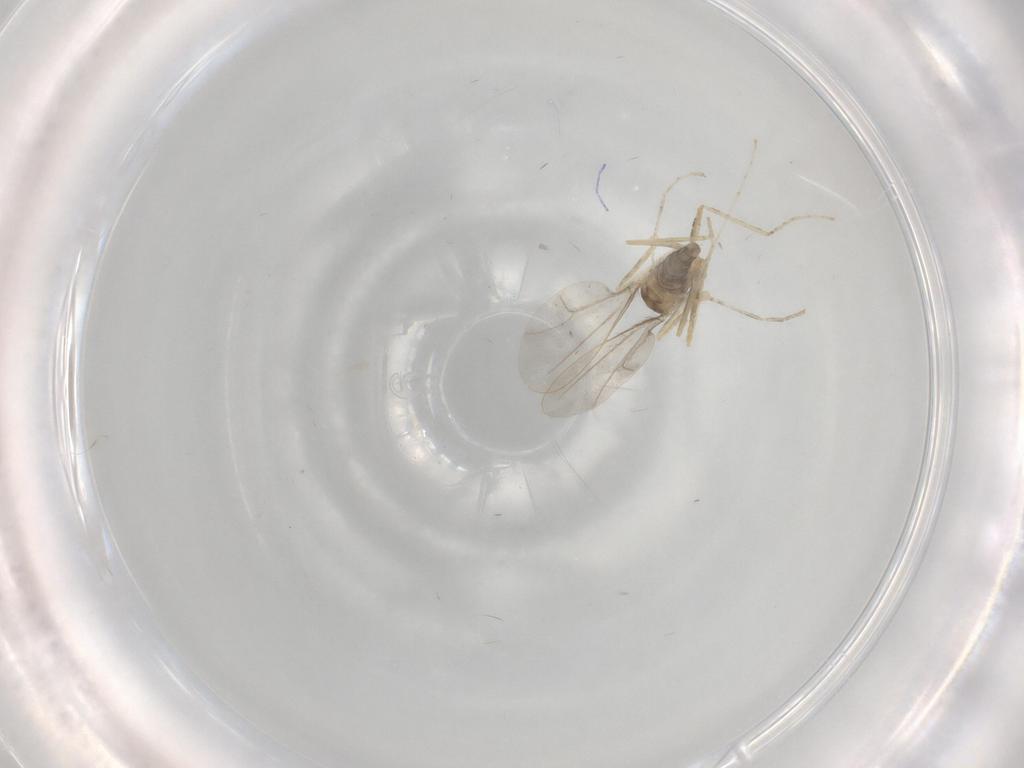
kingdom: Animalia
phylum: Arthropoda
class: Insecta
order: Diptera
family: Cecidomyiidae
